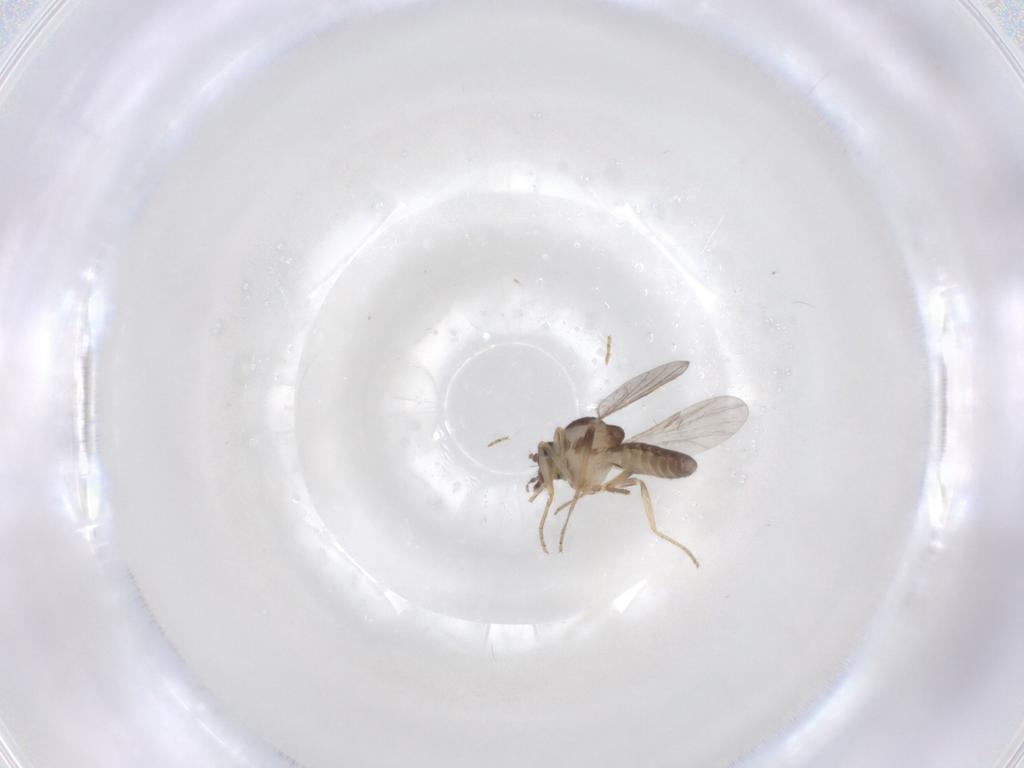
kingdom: Animalia
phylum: Arthropoda
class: Insecta
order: Diptera
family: Ceratopogonidae
